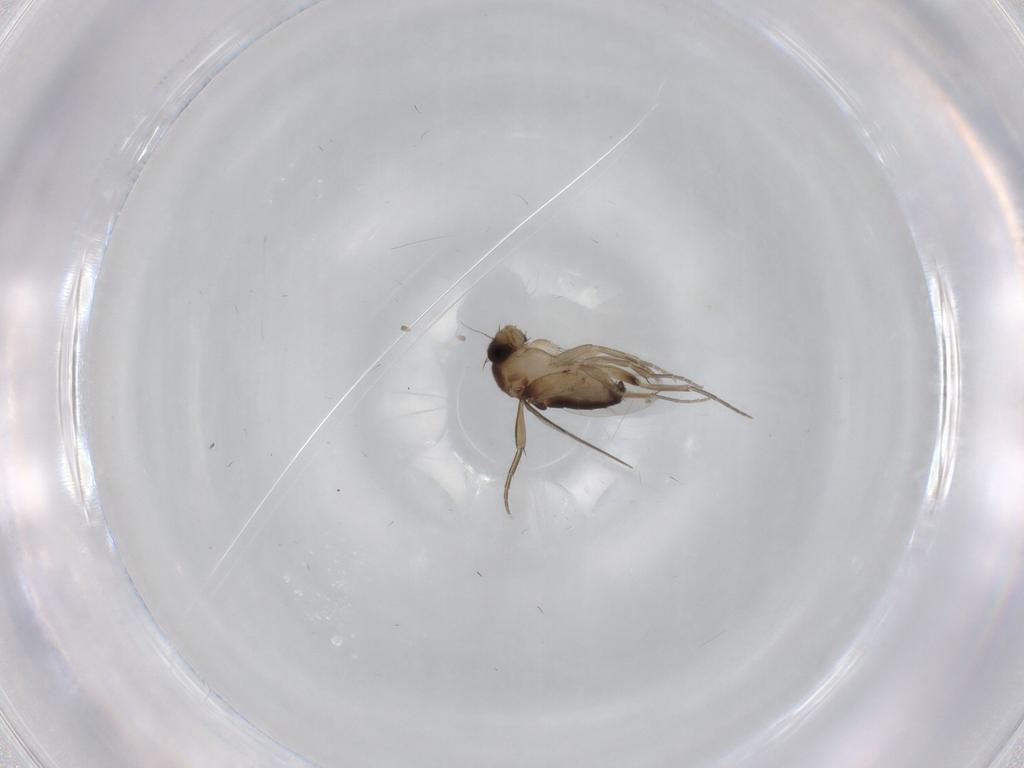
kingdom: Animalia
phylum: Arthropoda
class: Insecta
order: Diptera
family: Phoridae
